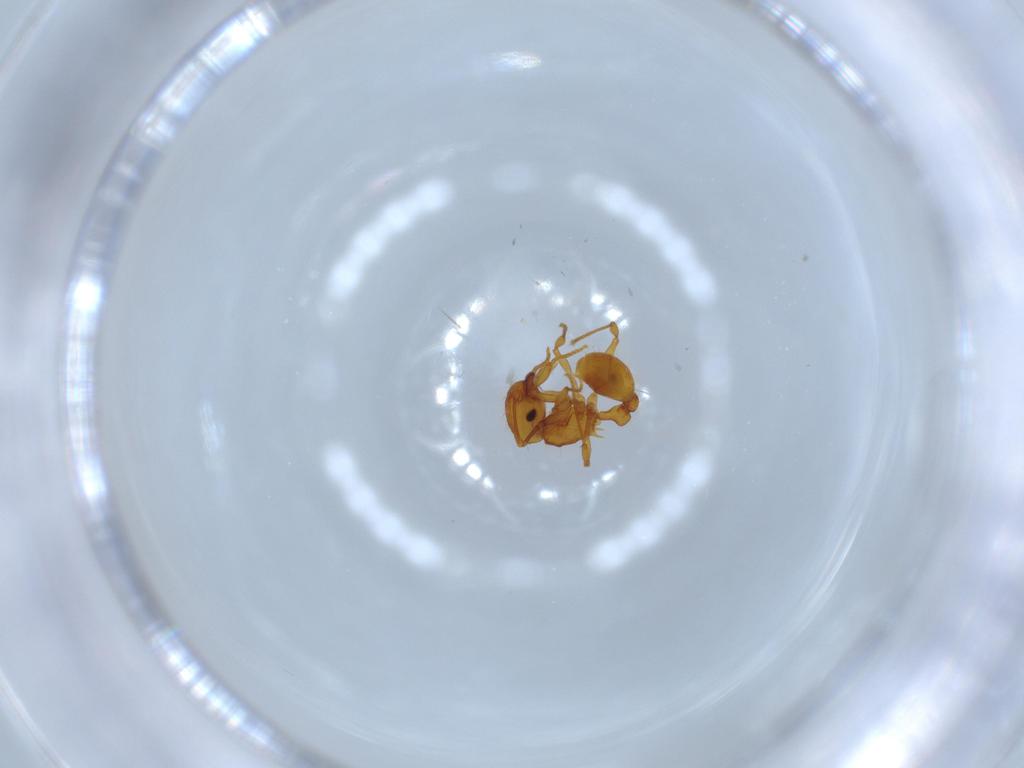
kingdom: Animalia
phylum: Arthropoda
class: Insecta
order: Hymenoptera
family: Formicidae
